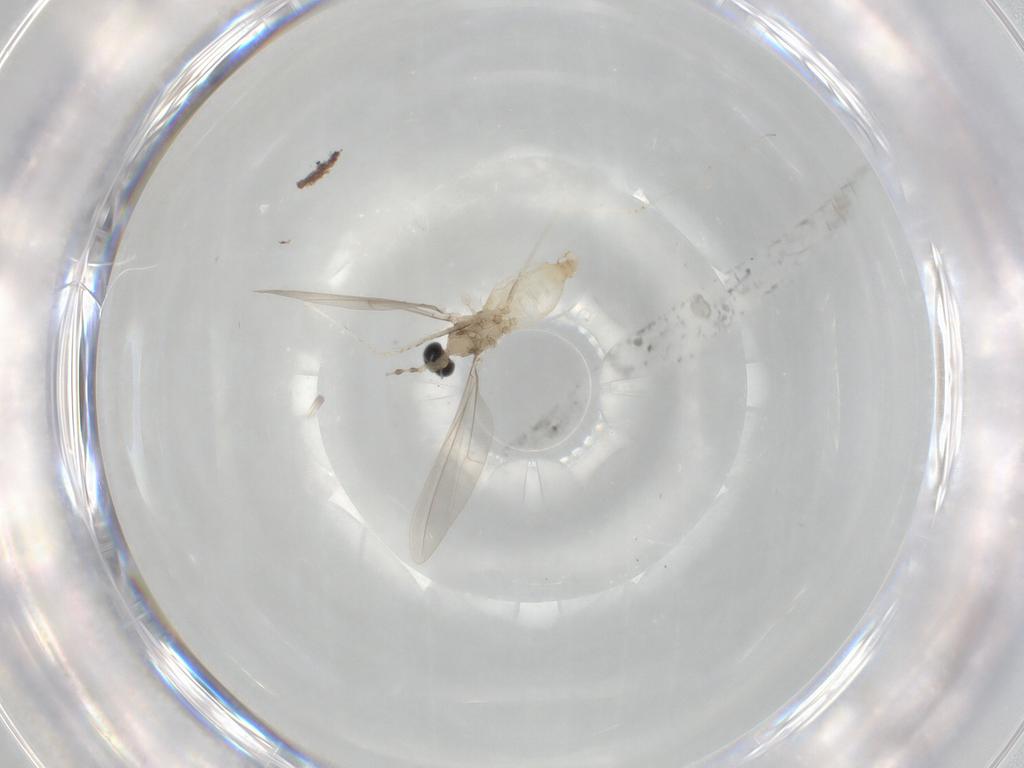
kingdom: Animalia
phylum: Arthropoda
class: Insecta
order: Diptera
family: Cecidomyiidae
